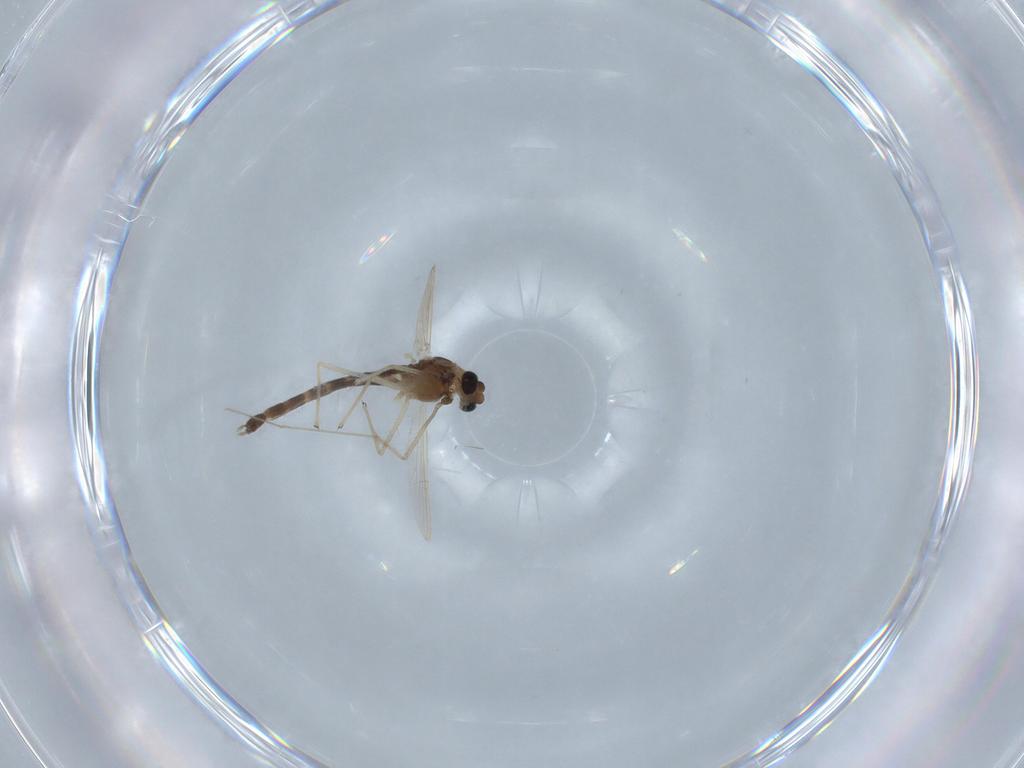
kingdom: Animalia
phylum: Arthropoda
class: Insecta
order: Diptera
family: Chironomidae
